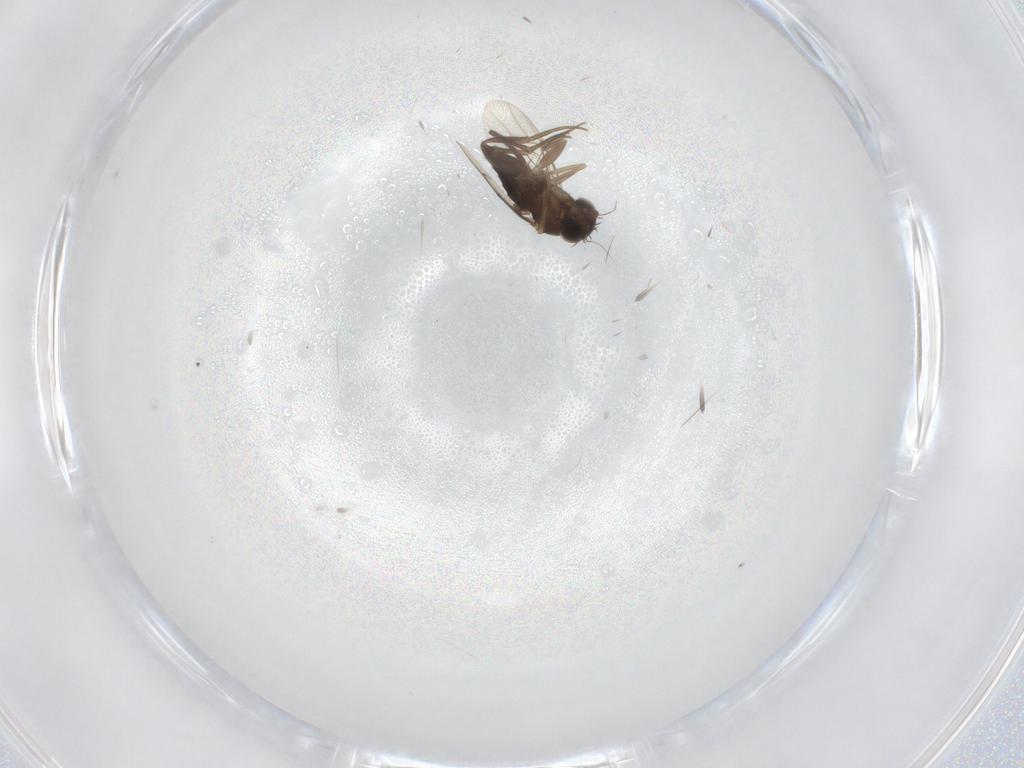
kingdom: Animalia
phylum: Arthropoda
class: Insecta
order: Diptera
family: Phoridae
